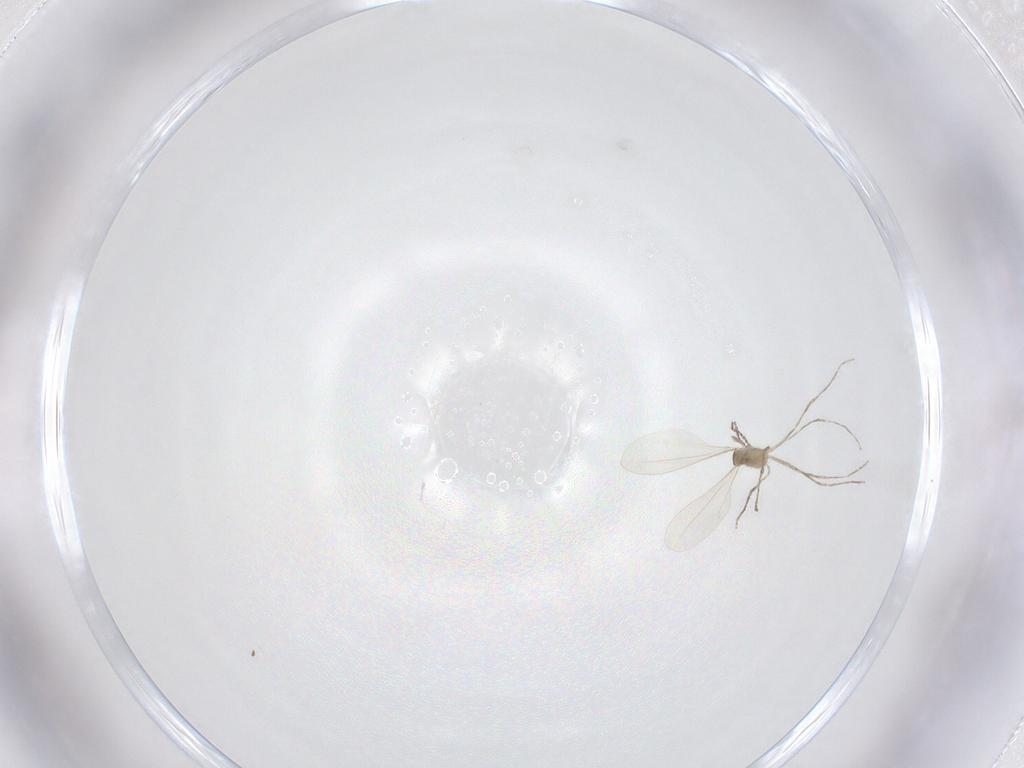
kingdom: Animalia
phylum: Arthropoda
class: Insecta
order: Diptera
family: Cecidomyiidae
